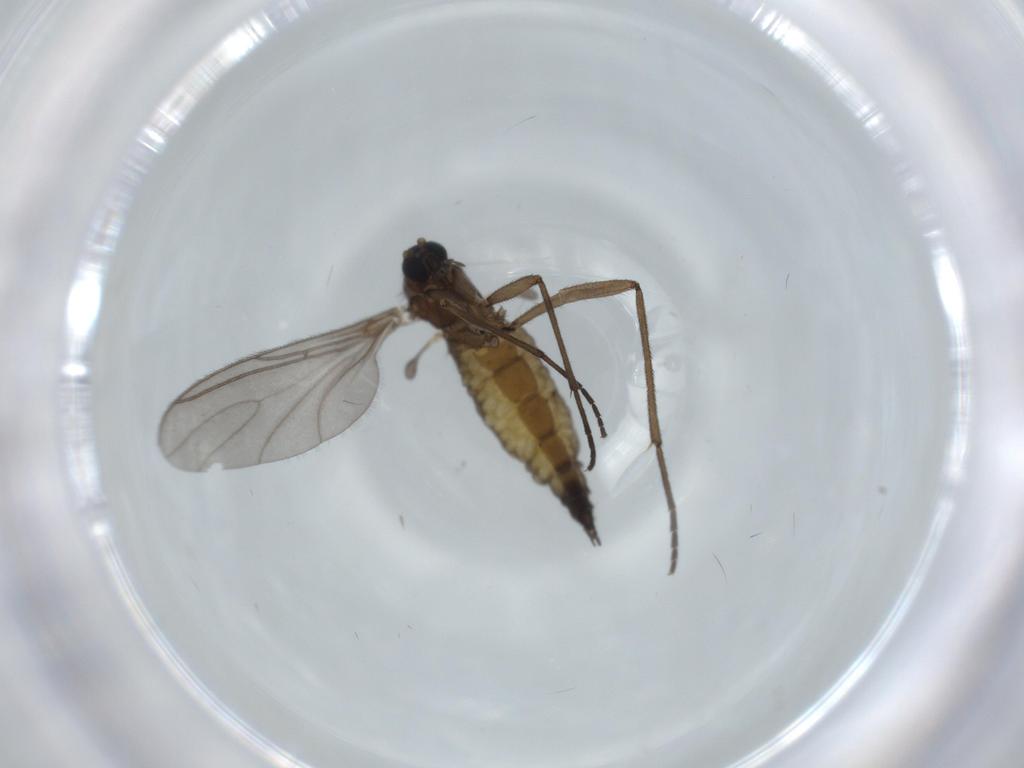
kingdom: Animalia
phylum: Arthropoda
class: Insecta
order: Diptera
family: Sciaridae
